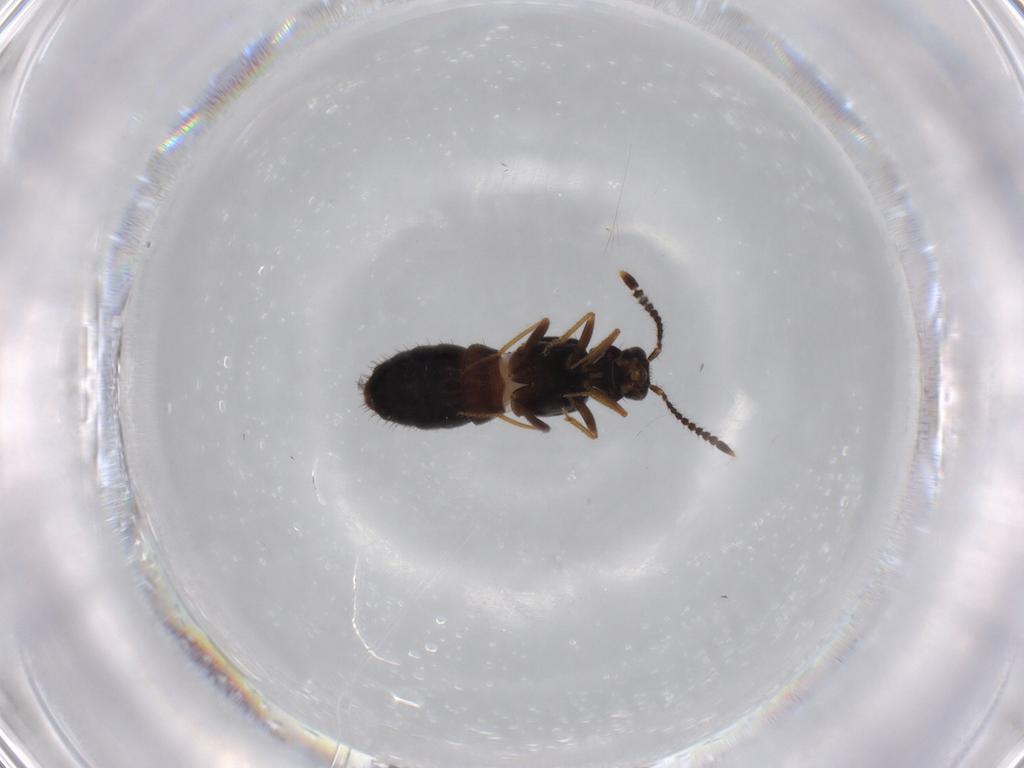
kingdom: Animalia
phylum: Arthropoda
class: Insecta
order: Coleoptera
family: Staphylinidae
